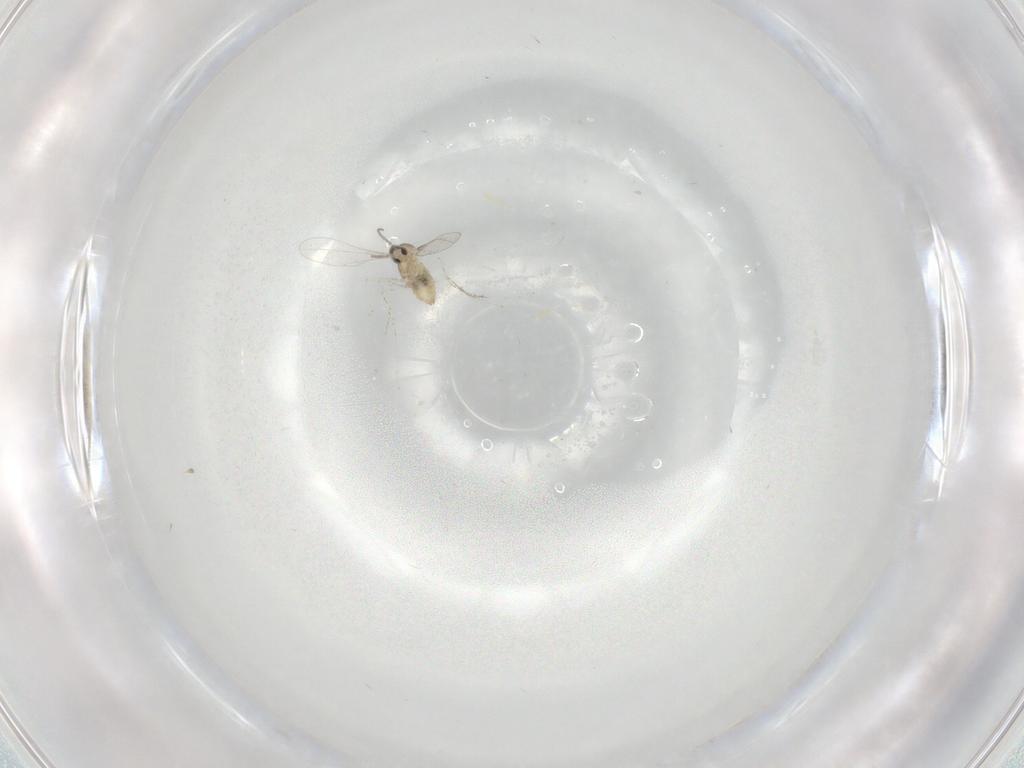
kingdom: Animalia
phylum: Arthropoda
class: Insecta
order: Diptera
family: Cecidomyiidae
